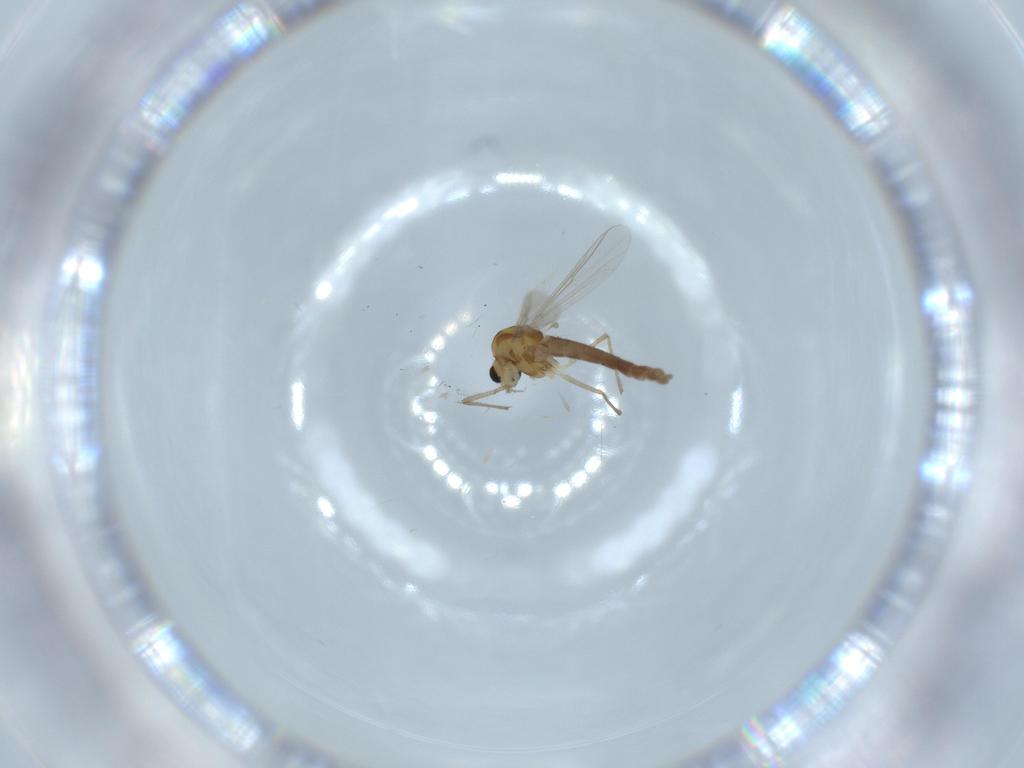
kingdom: Animalia
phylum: Arthropoda
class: Insecta
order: Diptera
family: Chironomidae
